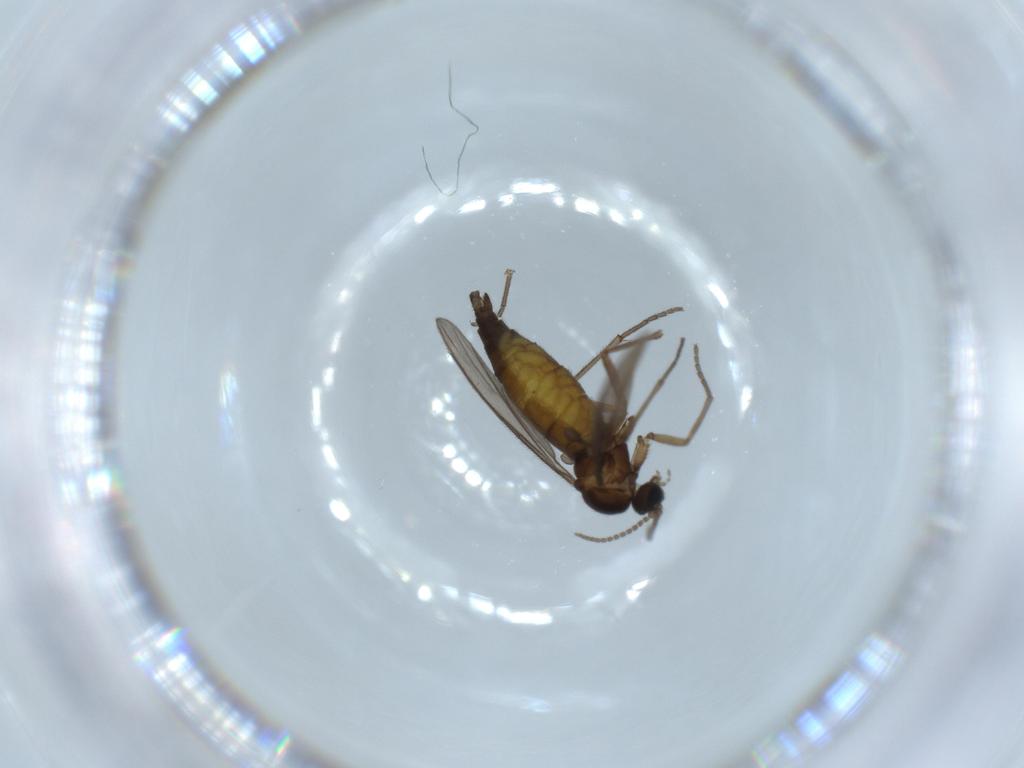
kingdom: Animalia
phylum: Arthropoda
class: Insecta
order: Diptera
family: Sciaridae
